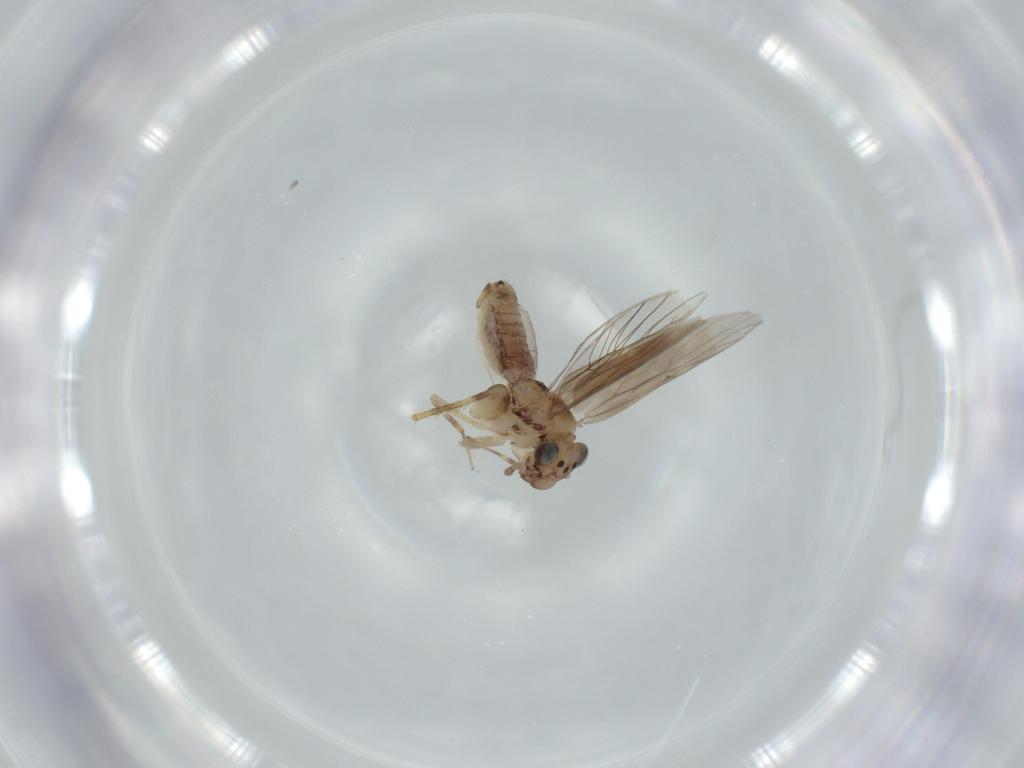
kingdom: Animalia
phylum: Arthropoda
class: Insecta
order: Psocodea
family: Lepidopsocidae
